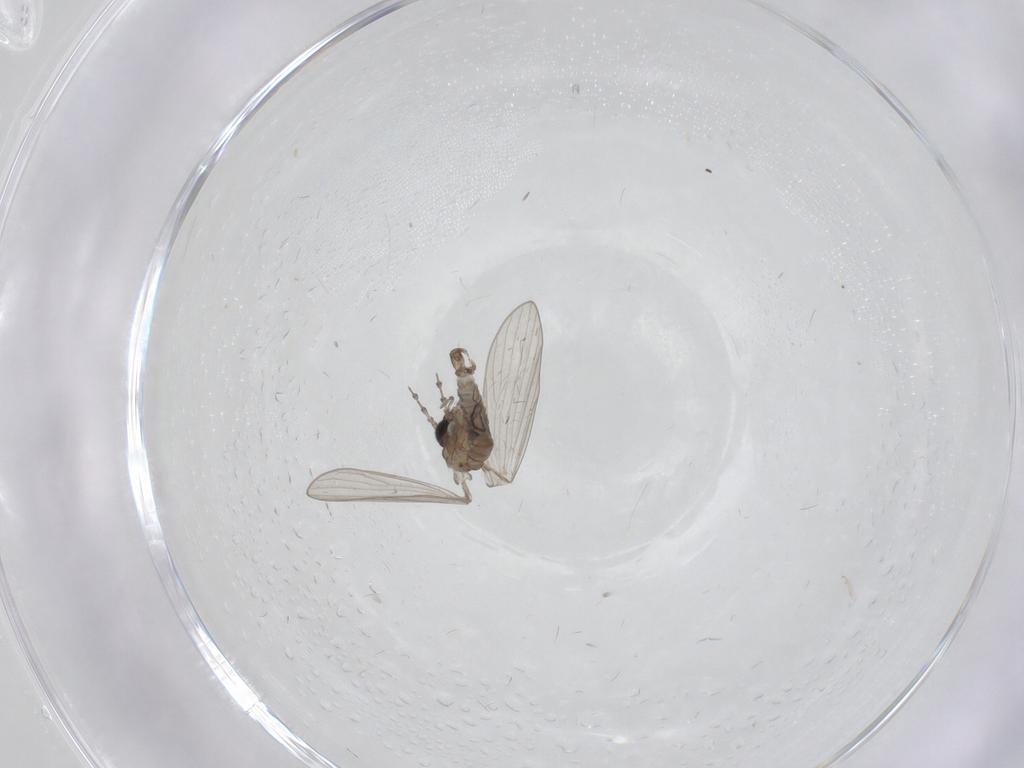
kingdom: Animalia
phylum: Arthropoda
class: Insecta
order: Diptera
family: Psychodidae
